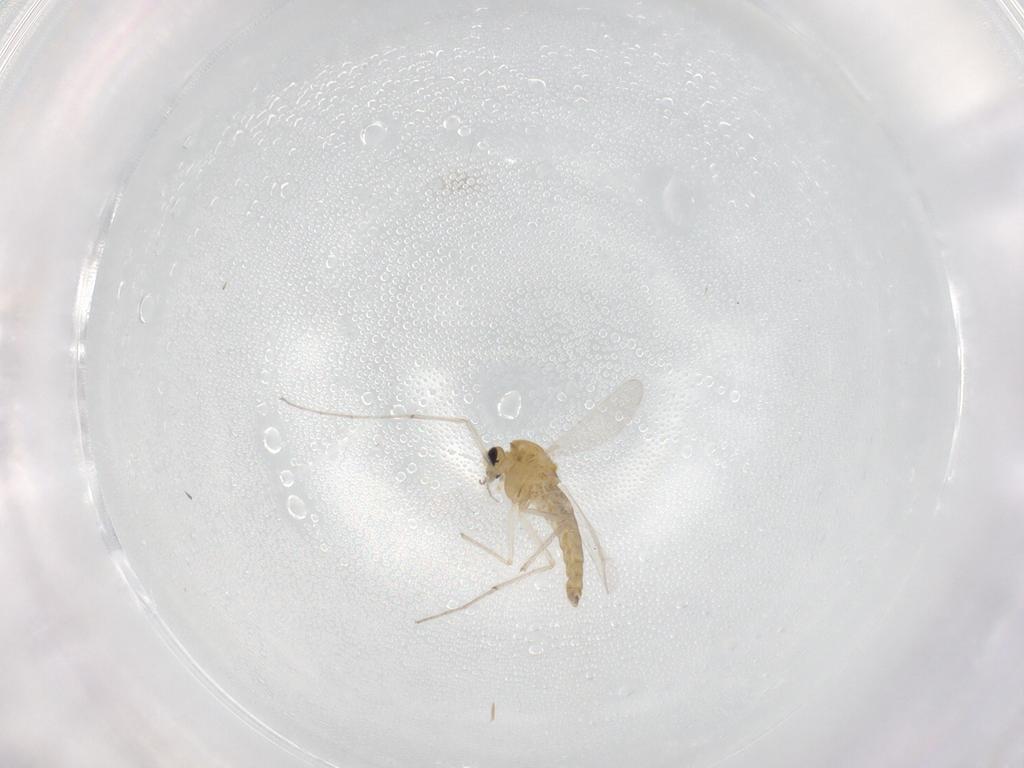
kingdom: Animalia
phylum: Arthropoda
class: Insecta
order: Diptera
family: Chironomidae
